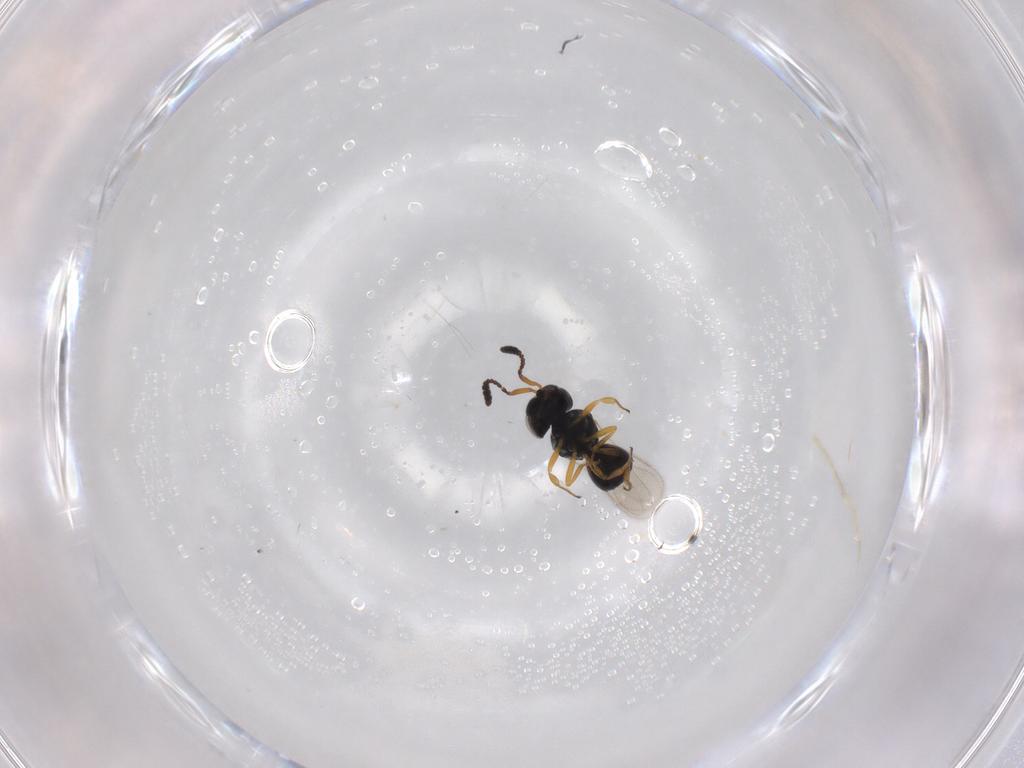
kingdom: Animalia
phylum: Arthropoda
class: Insecta
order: Hymenoptera
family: Scelionidae
